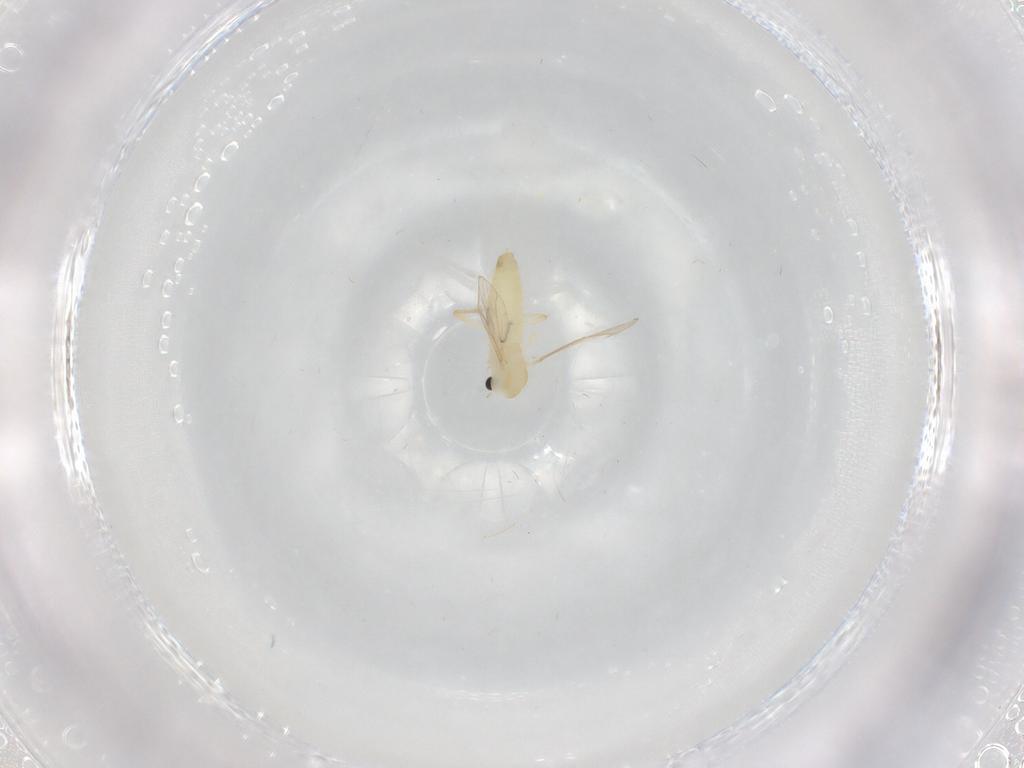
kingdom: Animalia
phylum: Arthropoda
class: Insecta
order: Diptera
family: Chironomidae
